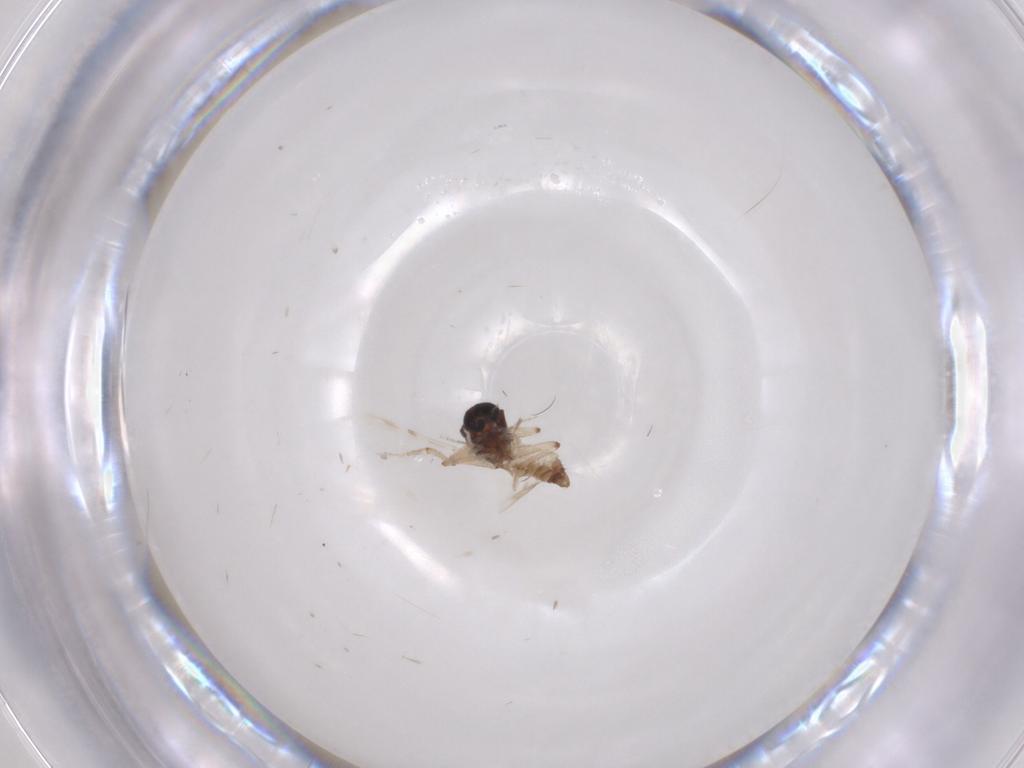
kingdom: Animalia
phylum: Arthropoda
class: Insecta
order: Diptera
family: Ceratopogonidae
